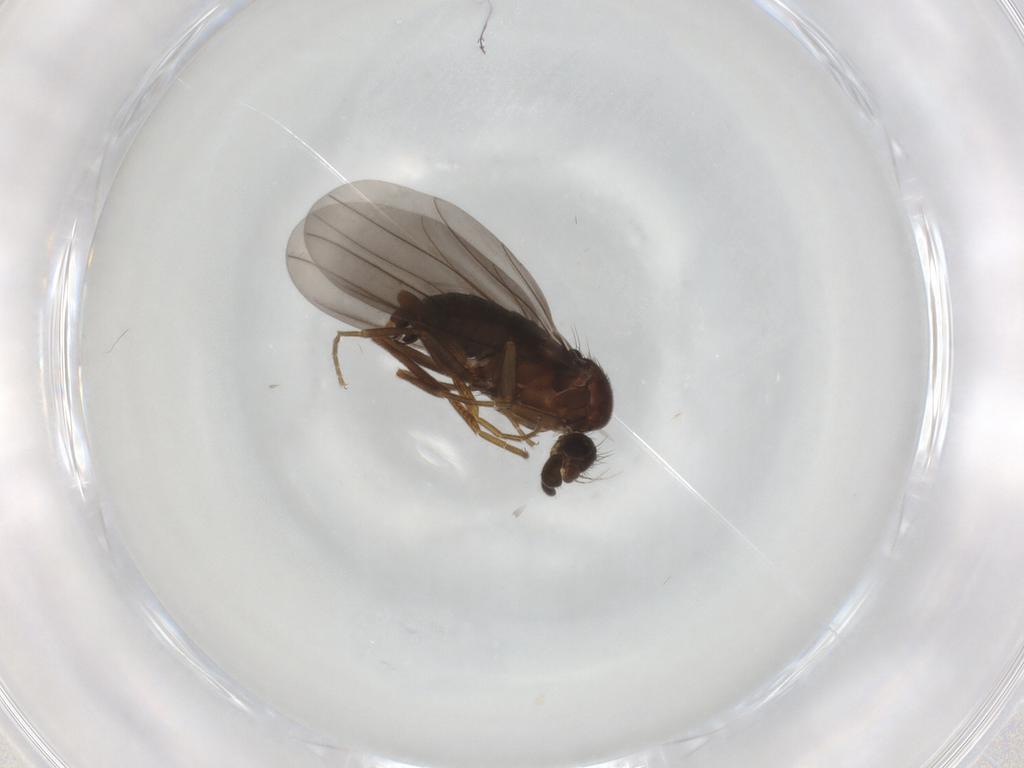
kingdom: Animalia
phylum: Arthropoda
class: Insecta
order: Diptera
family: Phoridae
